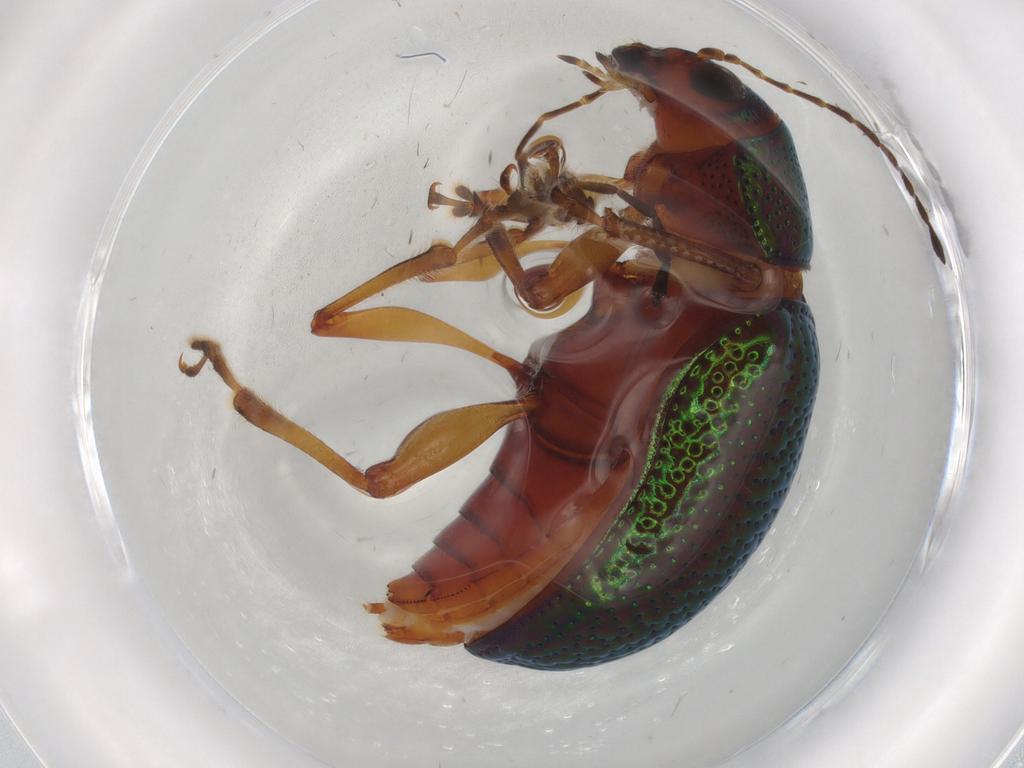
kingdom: Animalia
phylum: Arthropoda
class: Insecta
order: Coleoptera
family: Chrysomelidae
